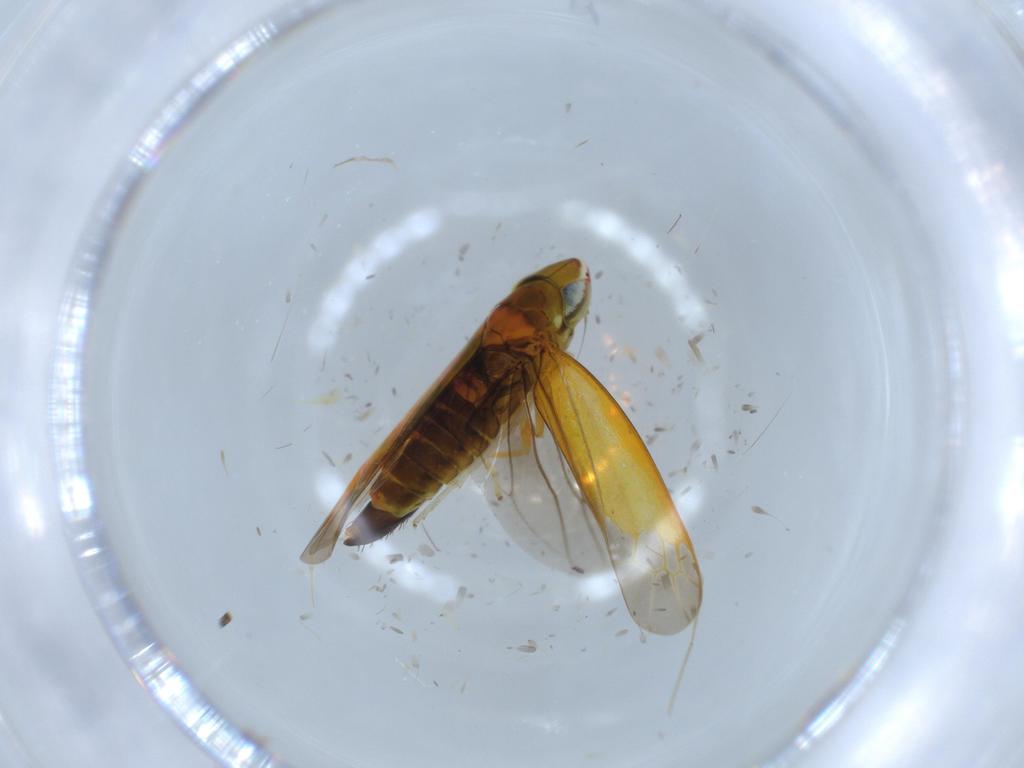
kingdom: Animalia
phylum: Arthropoda
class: Insecta
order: Hemiptera
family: Cicadellidae
